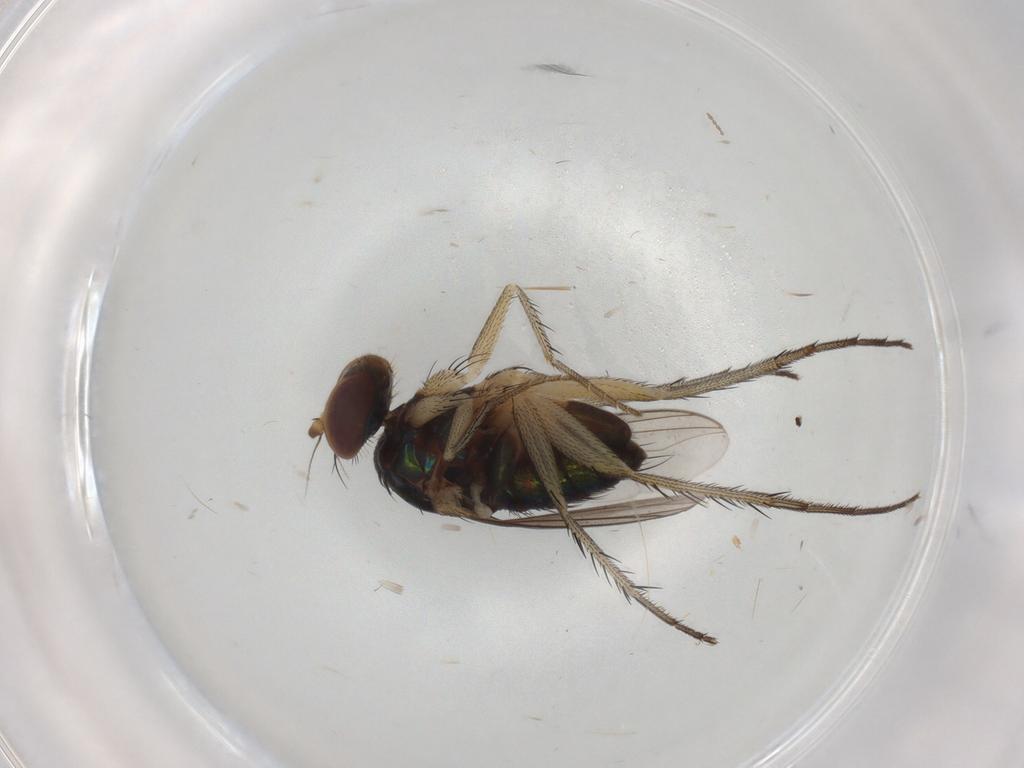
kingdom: Animalia
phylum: Arthropoda
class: Insecta
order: Diptera
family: Dolichopodidae
